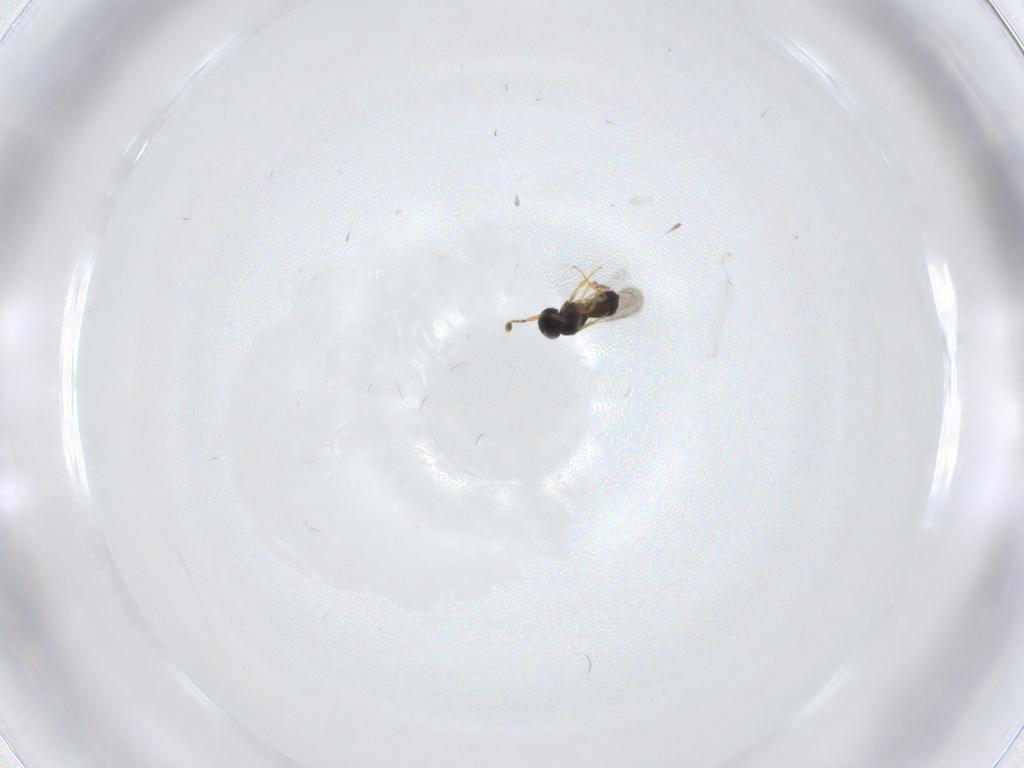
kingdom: Animalia
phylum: Arthropoda
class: Insecta
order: Hymenoptera
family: Scelionidae
